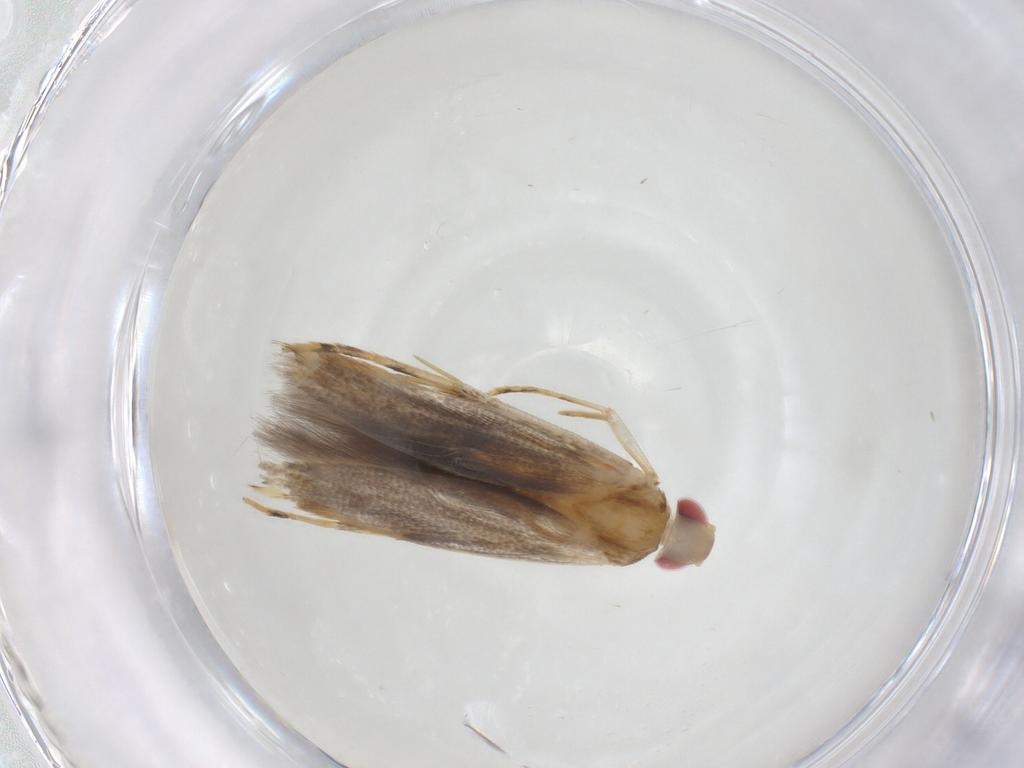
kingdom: Animalia
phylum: Arthropoda
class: Insecta
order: Lepidoptera
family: Cosmopterigidae
